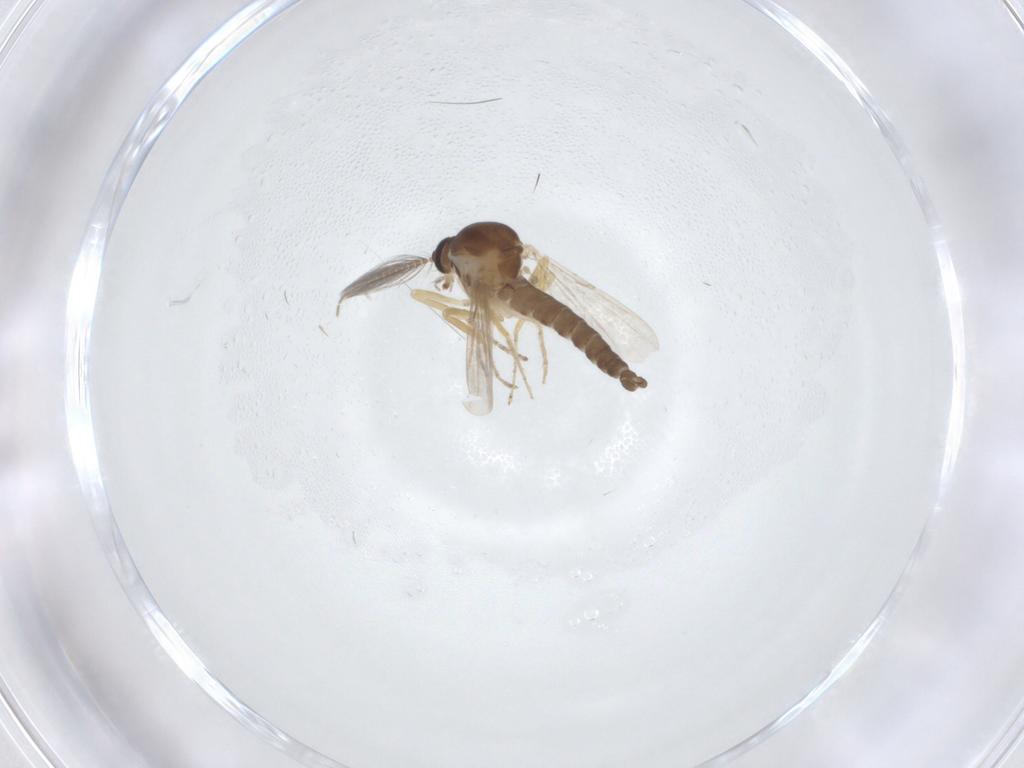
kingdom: Animalia
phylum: Arthropoda
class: Insecta
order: Diptera
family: Ceratopogonidae
